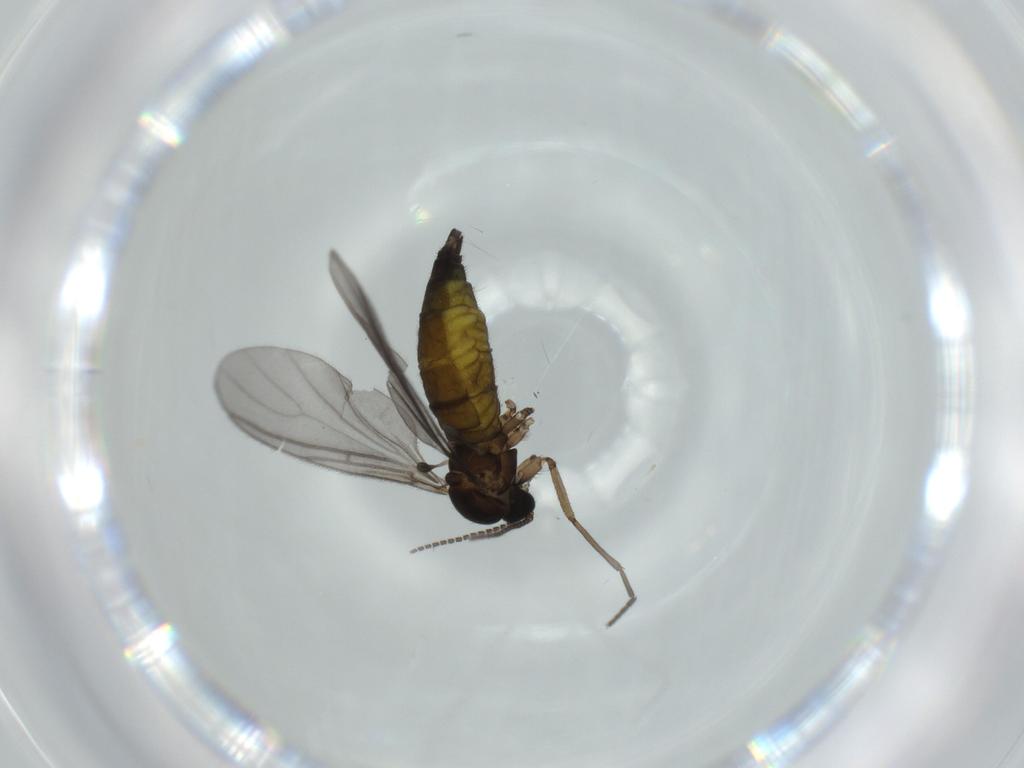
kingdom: Animalia
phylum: Arthropoda
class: Insecta
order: Diptera
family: Sciaridae
